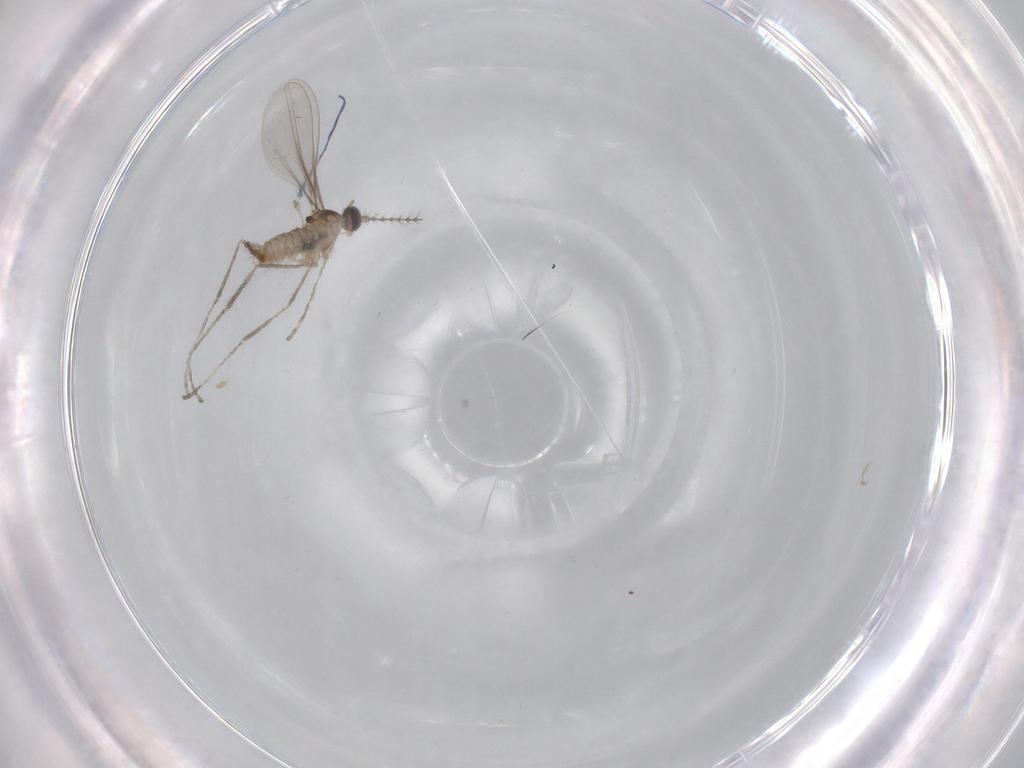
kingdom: Animalia
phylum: Arthropoda
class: Insecta
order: Diptera
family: Cecidomyiidae
